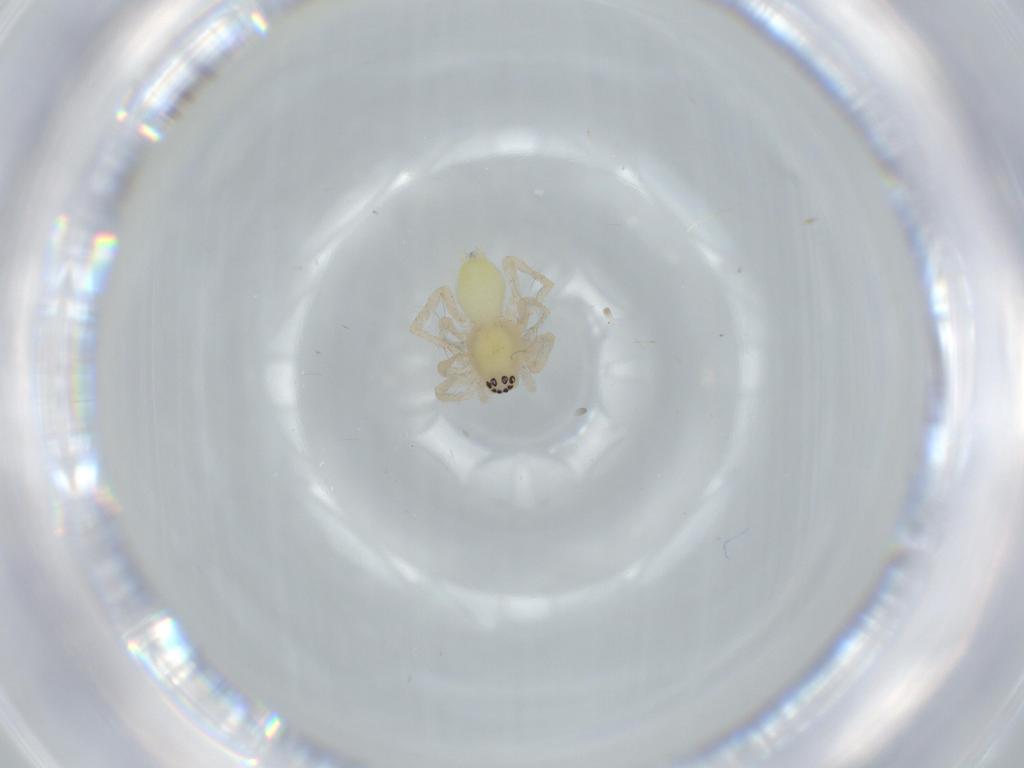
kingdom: Animalia
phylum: Arthropoda
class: Arachnida
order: Araneae
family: Anyphaenidae
